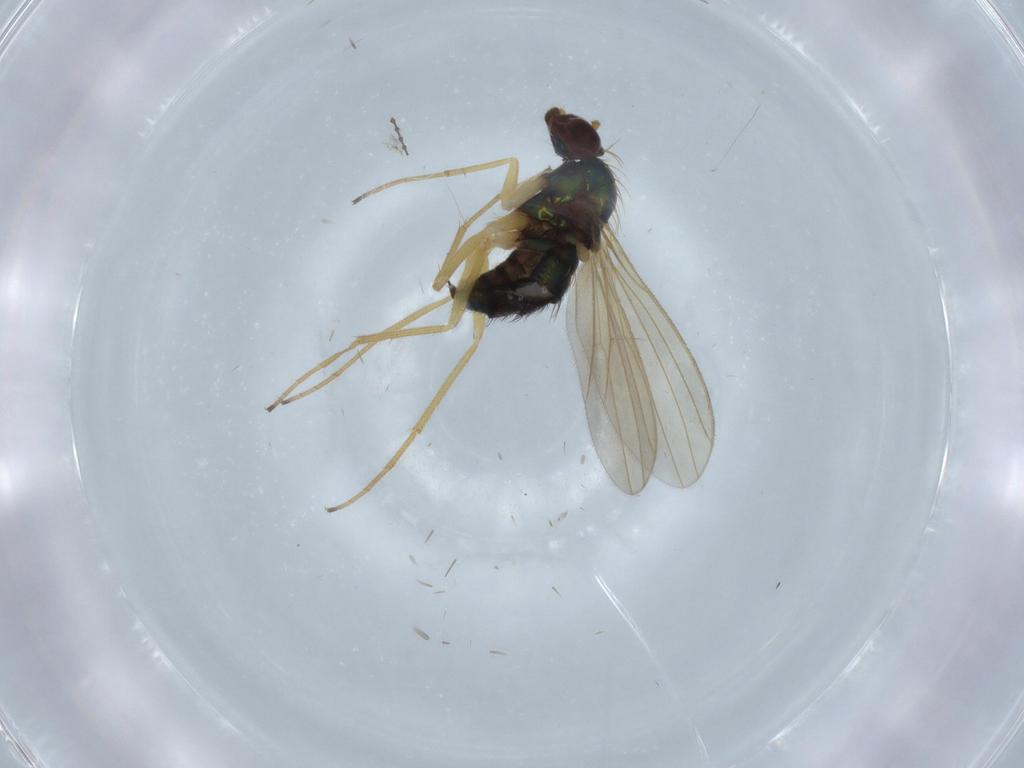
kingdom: Animalia
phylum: Arthropoda
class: Insecta
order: Diptera
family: Dolichopodidae
